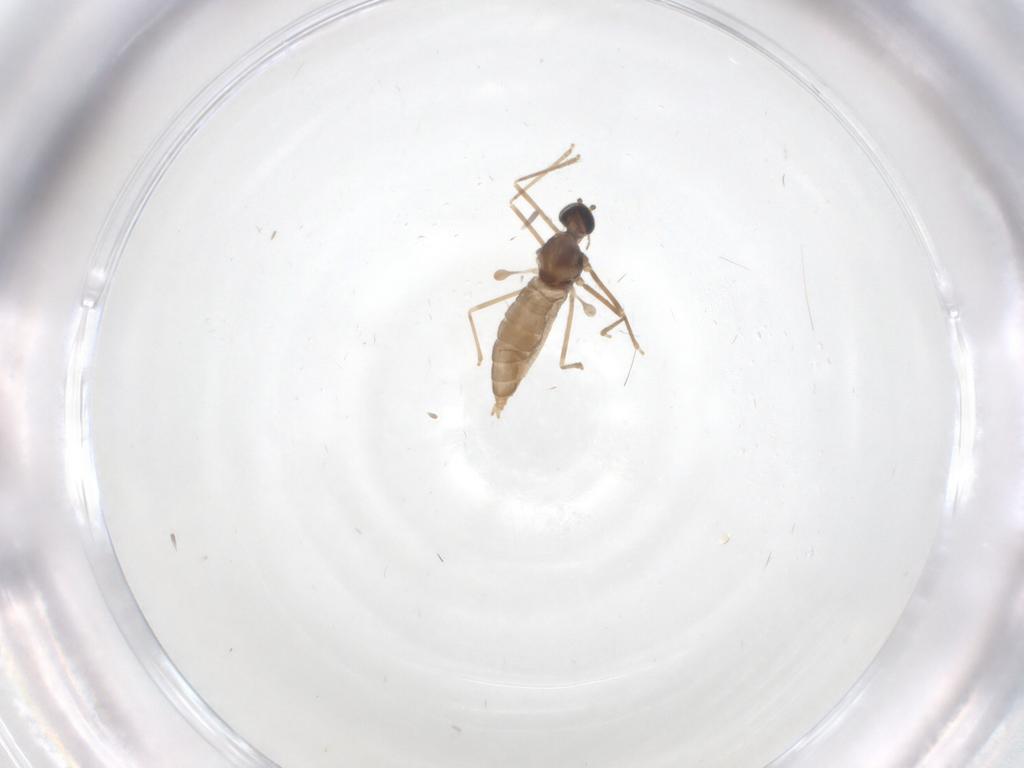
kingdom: Animalia
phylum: Arthropoda
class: Insecta
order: Diptera
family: Cecidomyiidae
